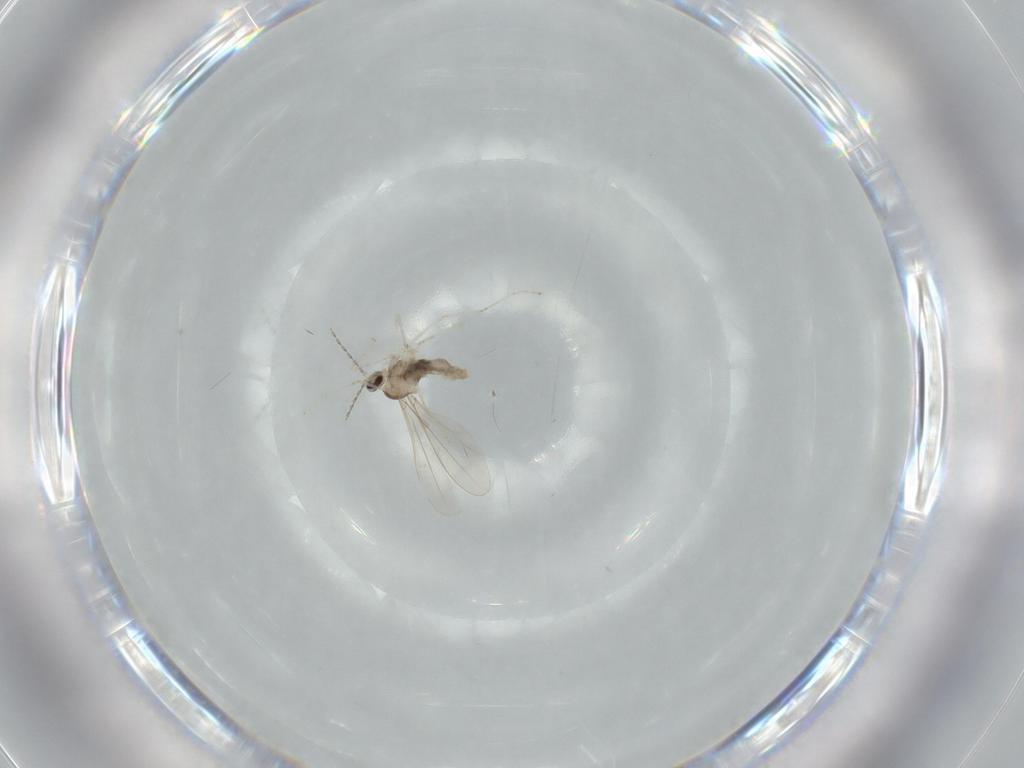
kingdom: Animalia
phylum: Arthropoda
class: Insecta
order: Diptera
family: Cecidomyiidae
